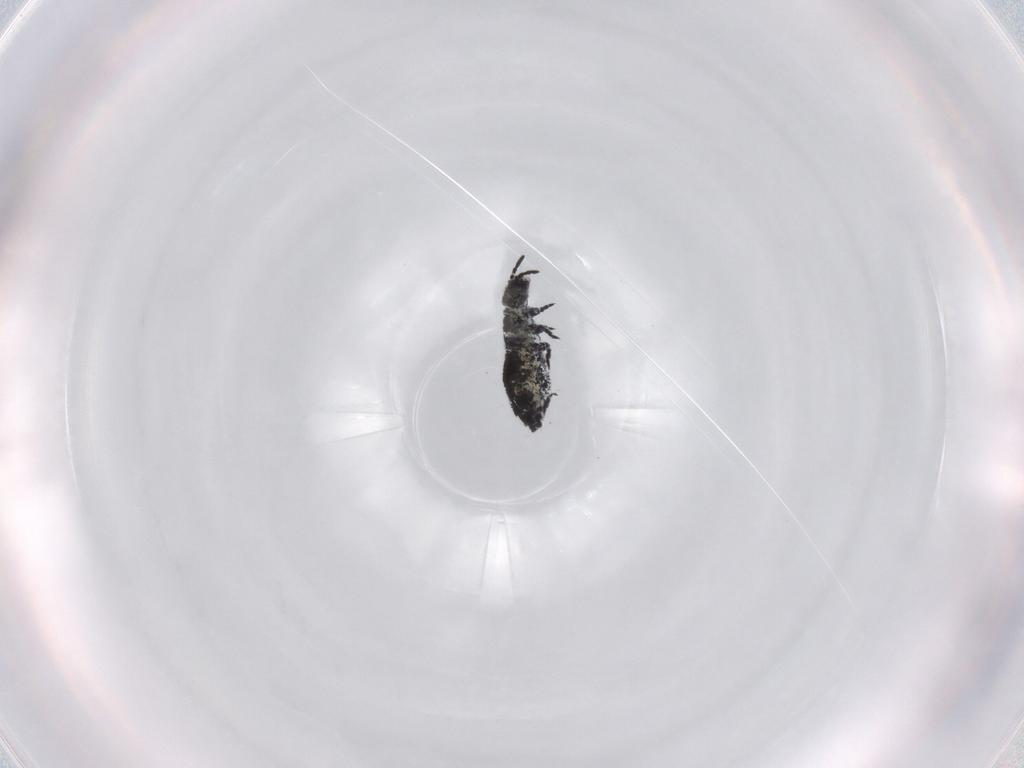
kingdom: Animalia
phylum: Arthropoda
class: Collembola
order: Poduromorpha
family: Hypogastruridae
